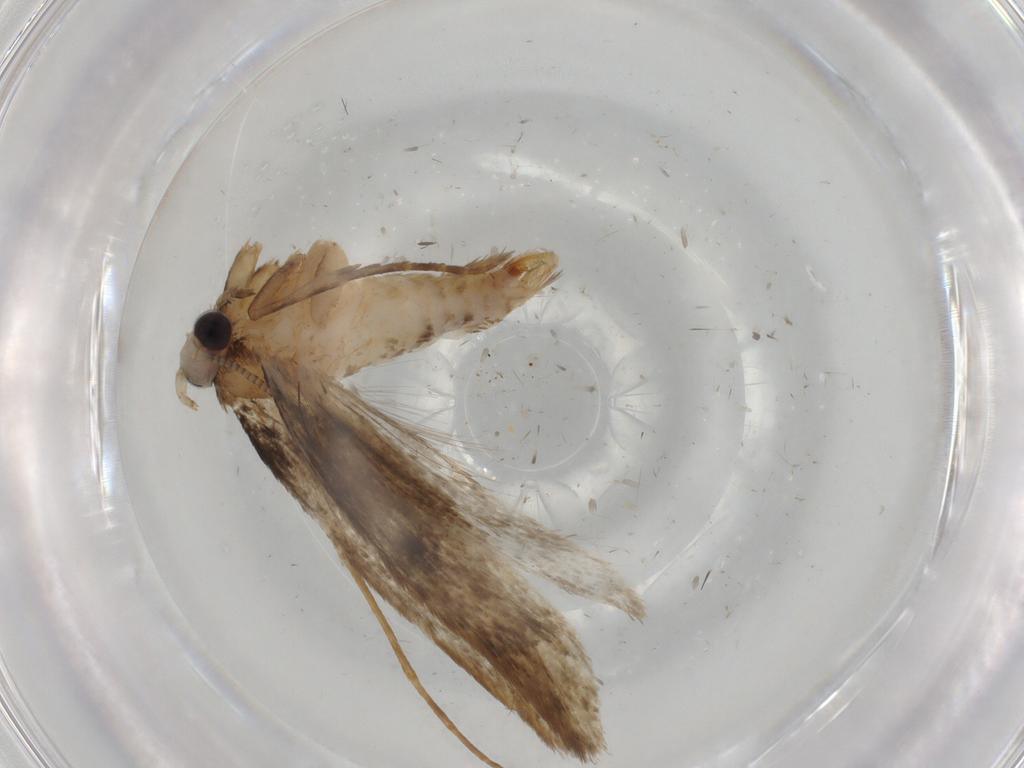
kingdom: Animalia
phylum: Arthropoda
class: Insecta
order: Lepidoptera
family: Tineidae
